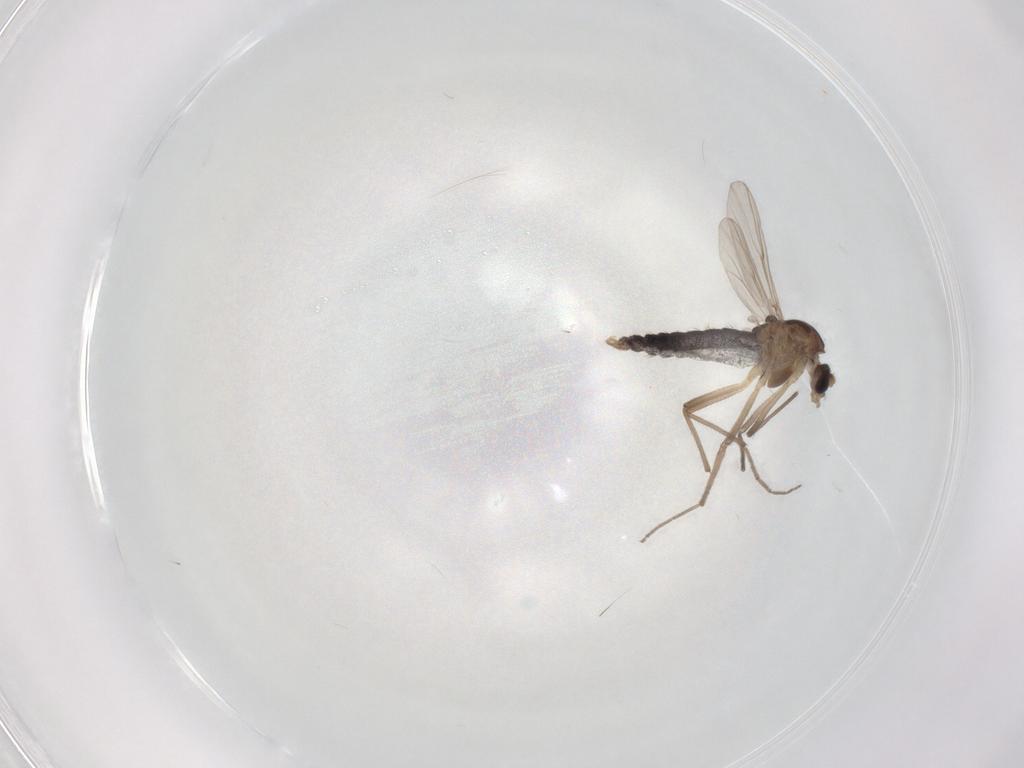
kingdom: Animalia
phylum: Arthropoda
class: Insecta
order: Diptera
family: Chironomidae
